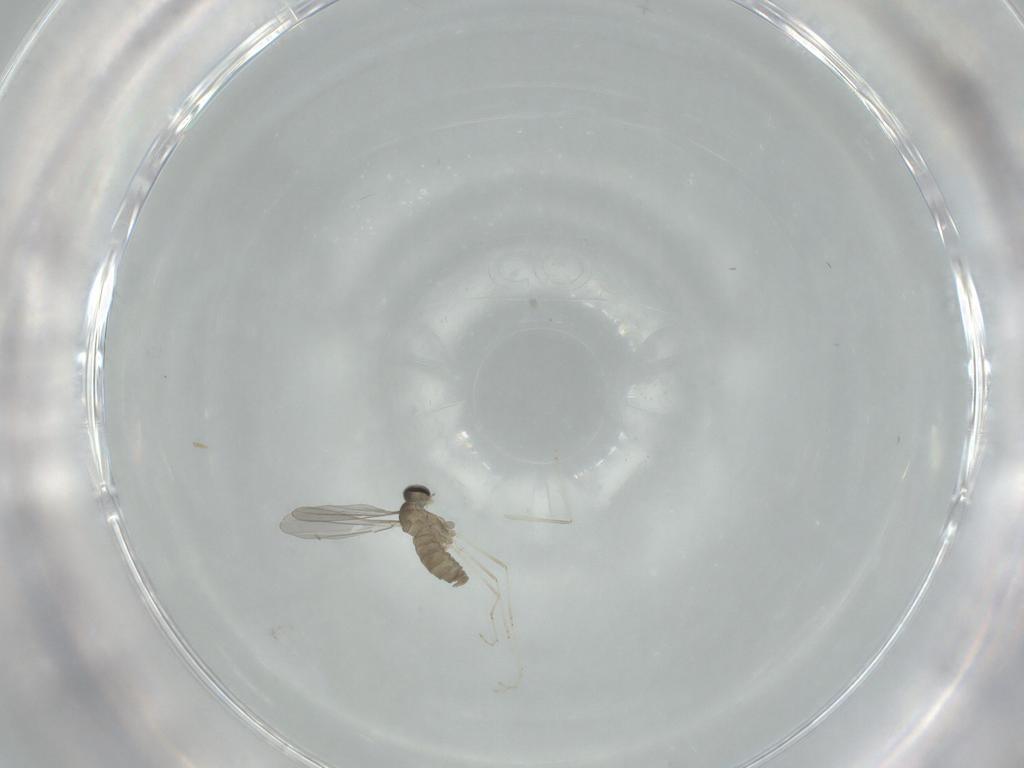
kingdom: Animalia
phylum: Arthropoda
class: Insecta
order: Diptera
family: Cecidomyiidae
